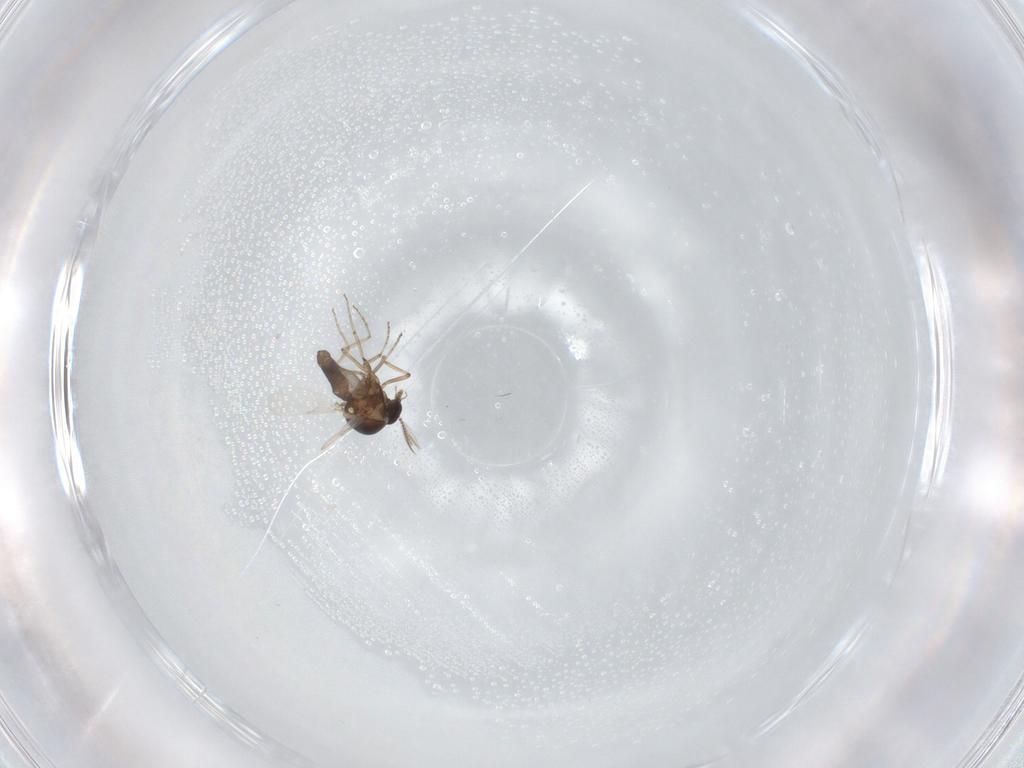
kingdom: Animalia
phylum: Arthropoda
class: Insecta
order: Diptera
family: Ceratopogonidae
